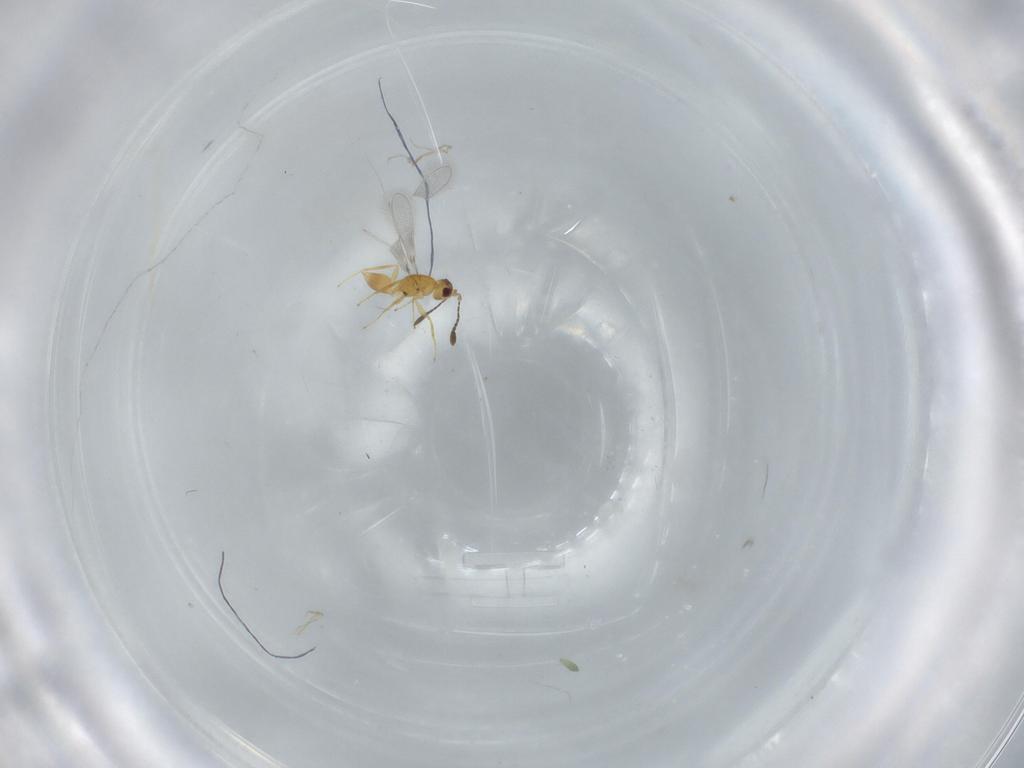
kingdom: Animalia
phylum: Arthropoda
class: Insecta
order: Hymenoptera
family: Mymaridae
